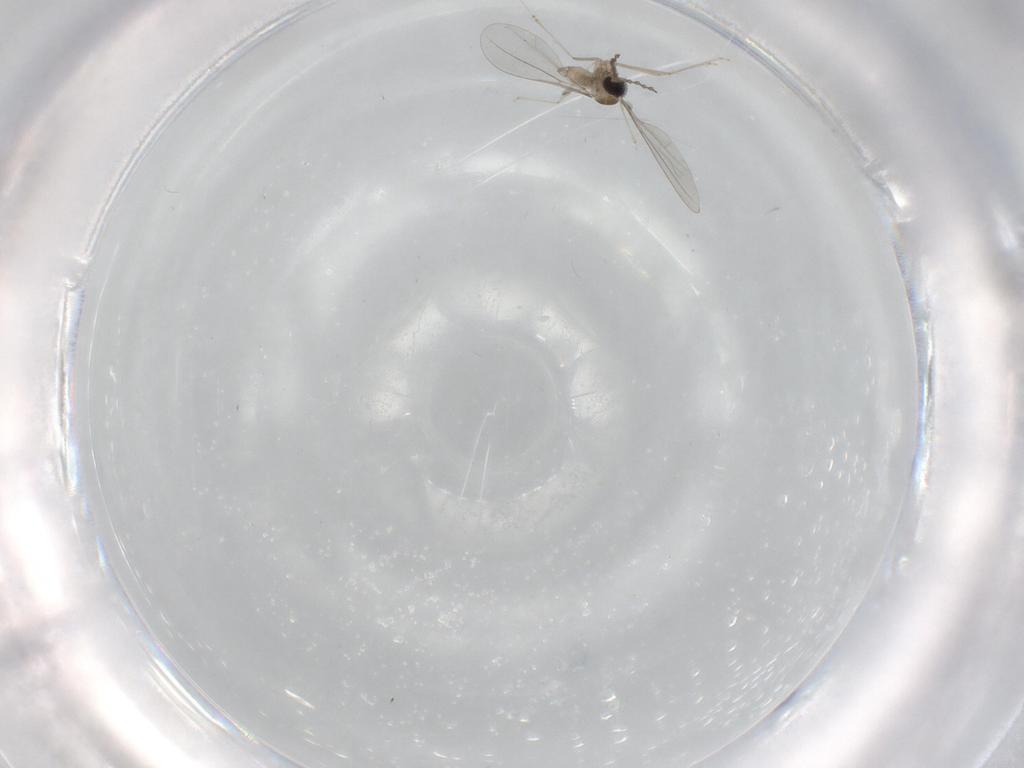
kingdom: Animalia
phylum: Arthropoda
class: Insecta
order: Diptera
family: Cecidomyiidae
